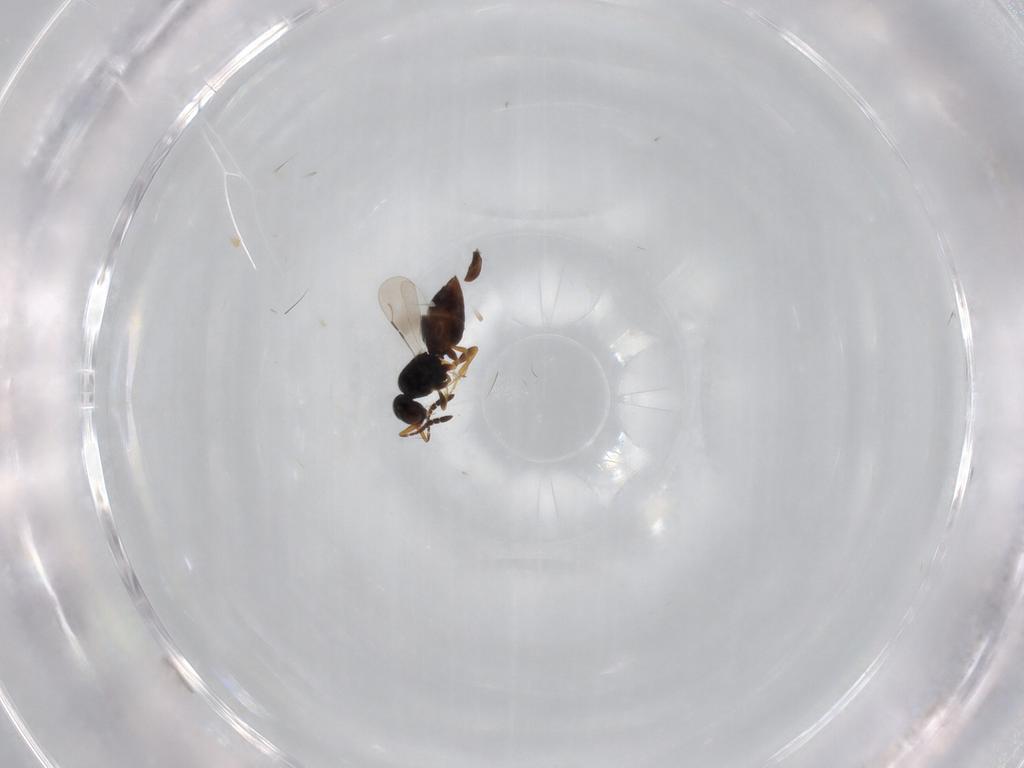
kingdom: Animalia
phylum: Arthropoda
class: Insecta
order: Hymenoptera
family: Ceraphronidae
